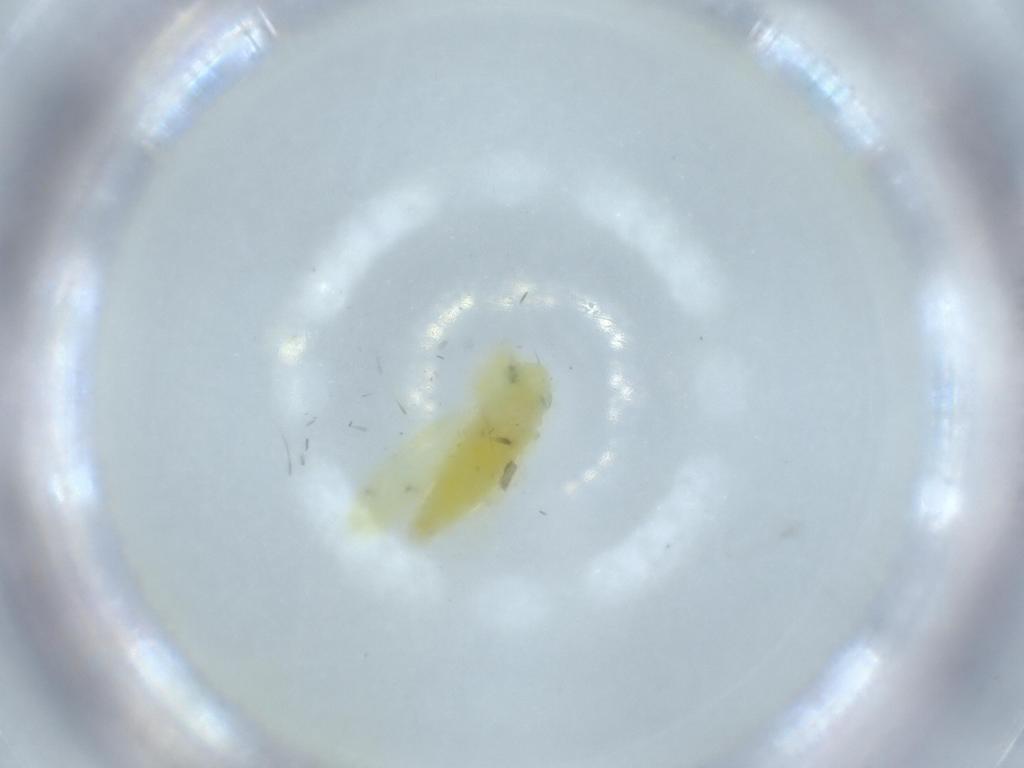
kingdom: Animalia
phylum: Arthropoda
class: Insecta
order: Hemiptera
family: Cicadellidae
